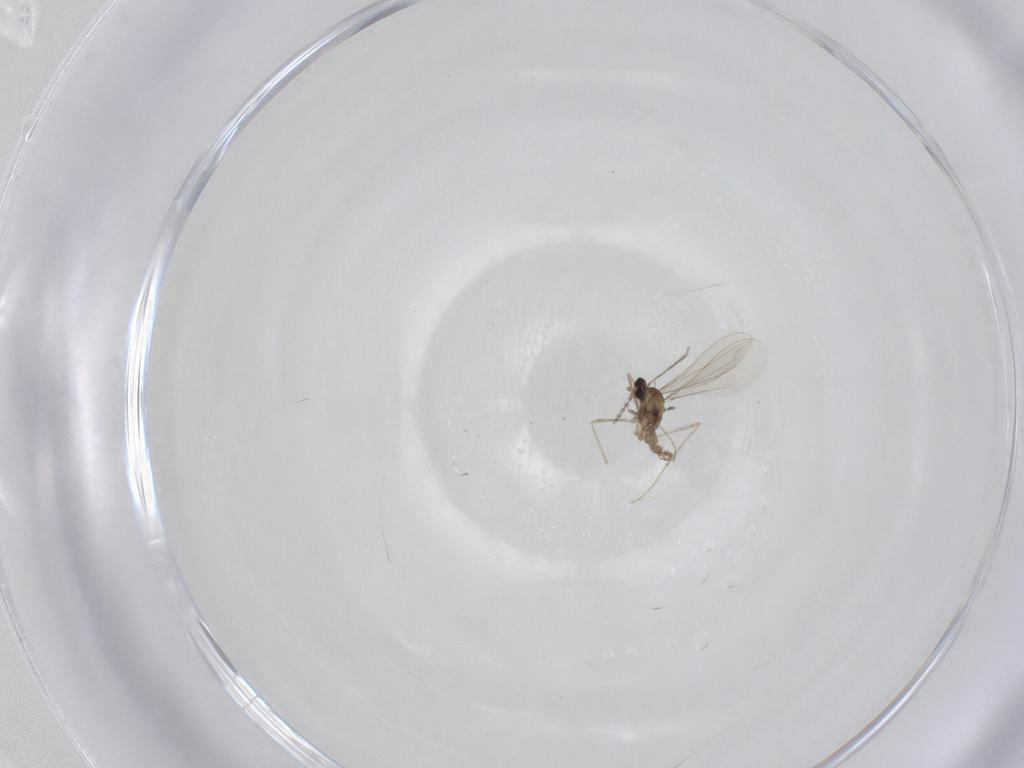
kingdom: Animalia
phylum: Arthropoda
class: Insecta
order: Diptera
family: Cecidomyiidae
